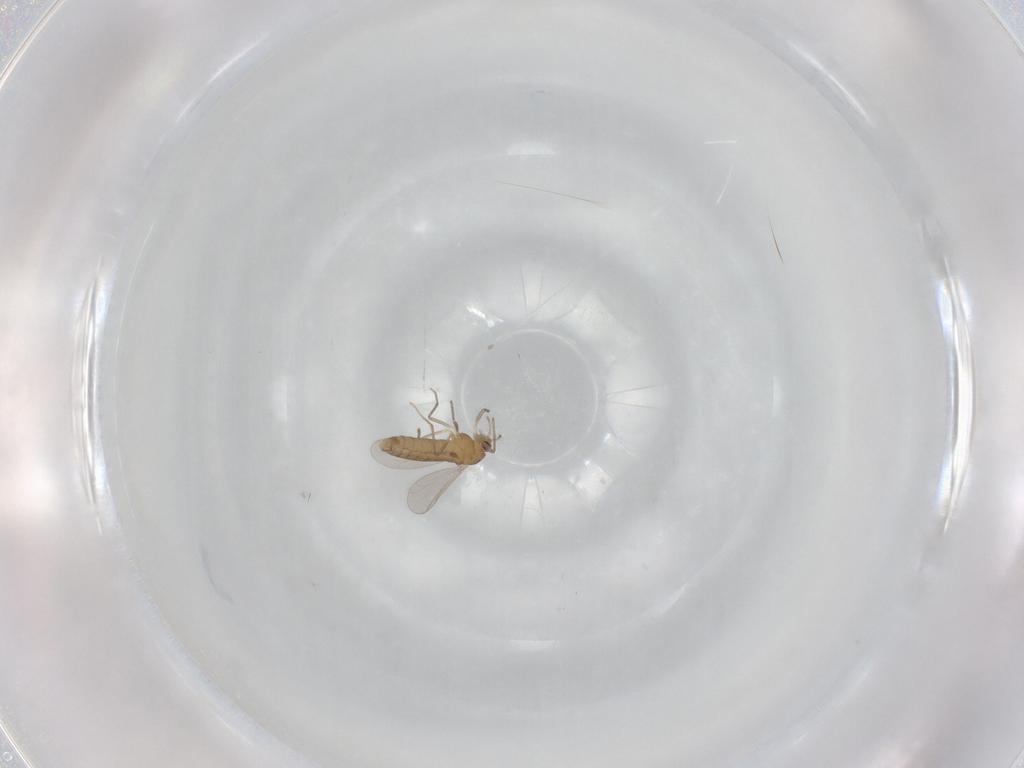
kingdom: Animalia
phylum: Arthropoda
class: Insecta
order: Diptera
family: Chironomidae
